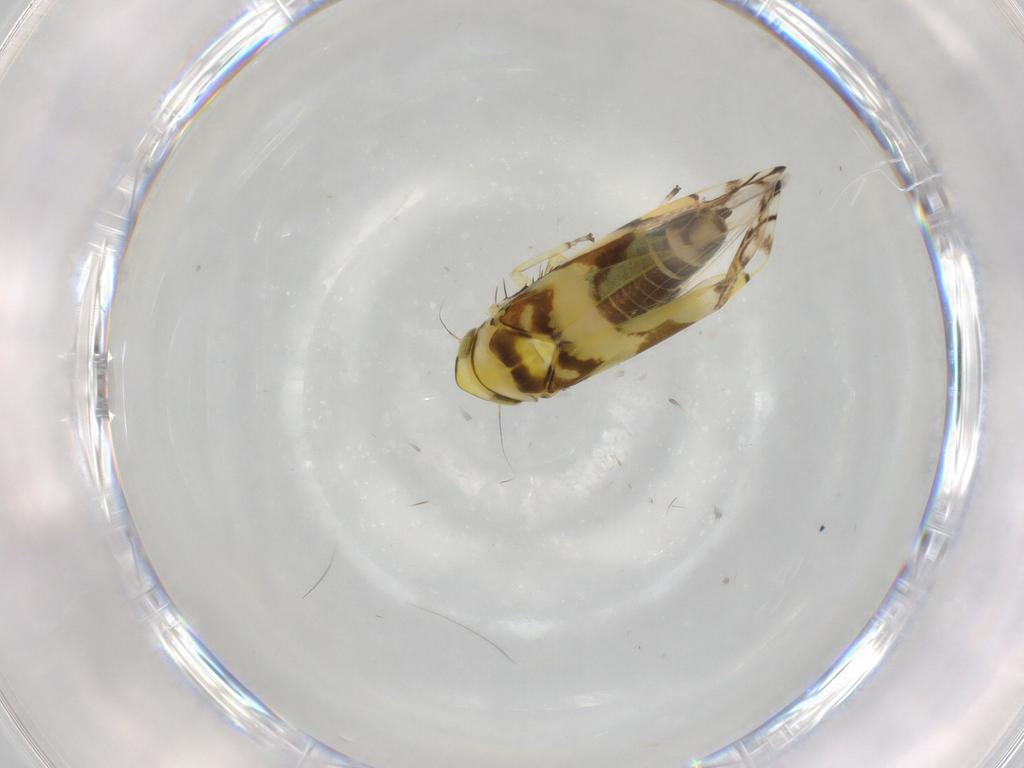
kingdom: Animalia
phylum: Arthropoda
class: Insecta
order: Hemiptera
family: Cicadellidae
